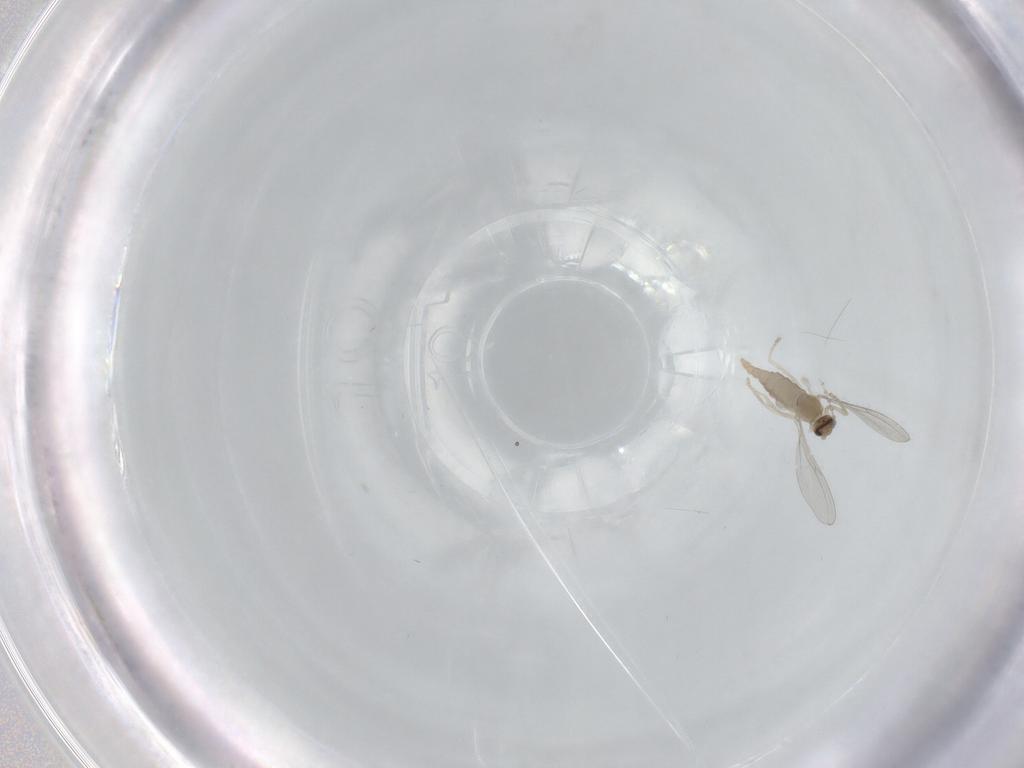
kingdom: Animalia
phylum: Arthropoda
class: Insecta
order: Diptera
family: Cecidomyiidae
